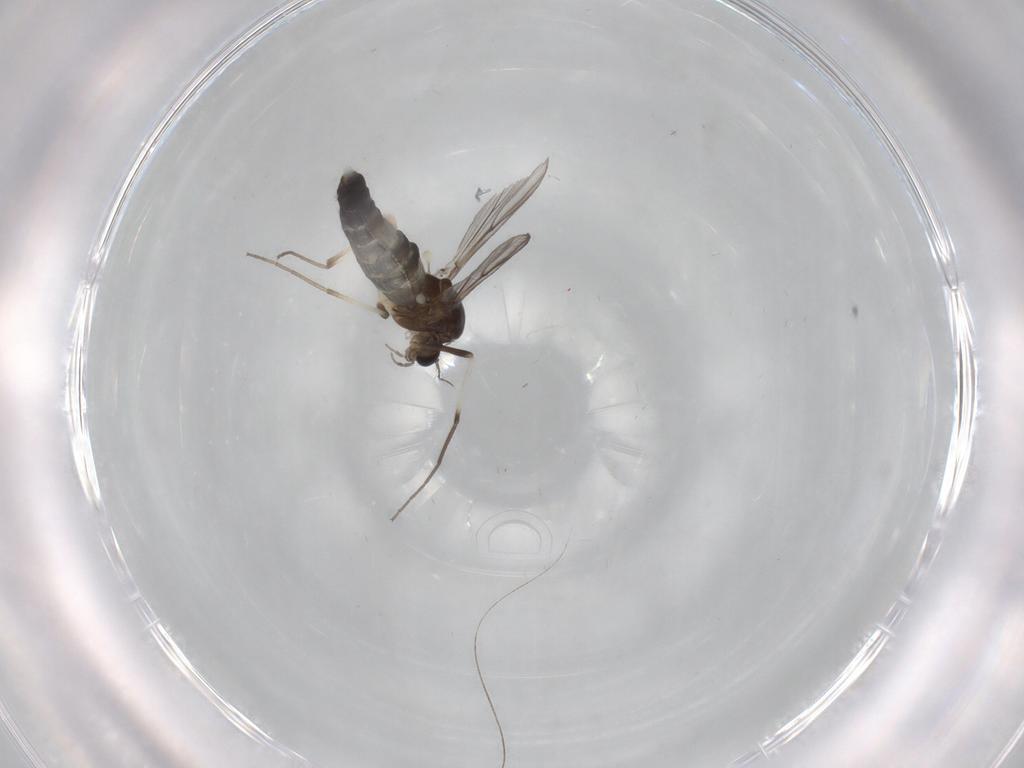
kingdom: Animalia
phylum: Arthropoda
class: Insecta
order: Diptera
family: Chironomidae
